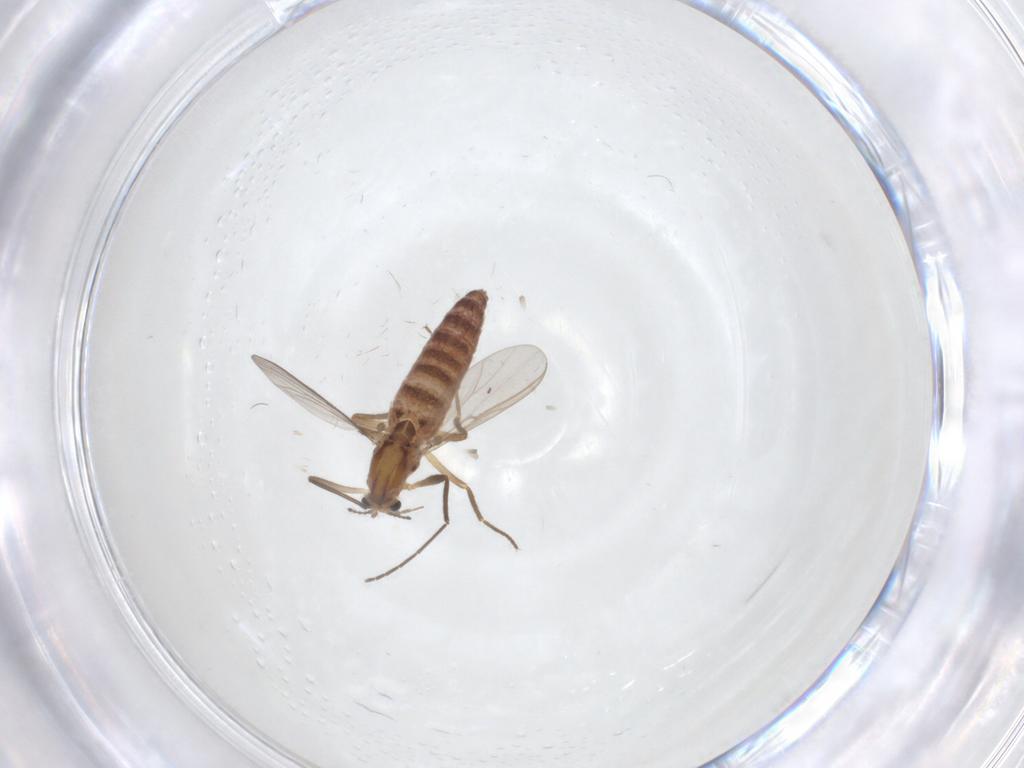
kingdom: Animalia
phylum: Arthropoda
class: Insecta
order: Diptera
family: Chironomidae
